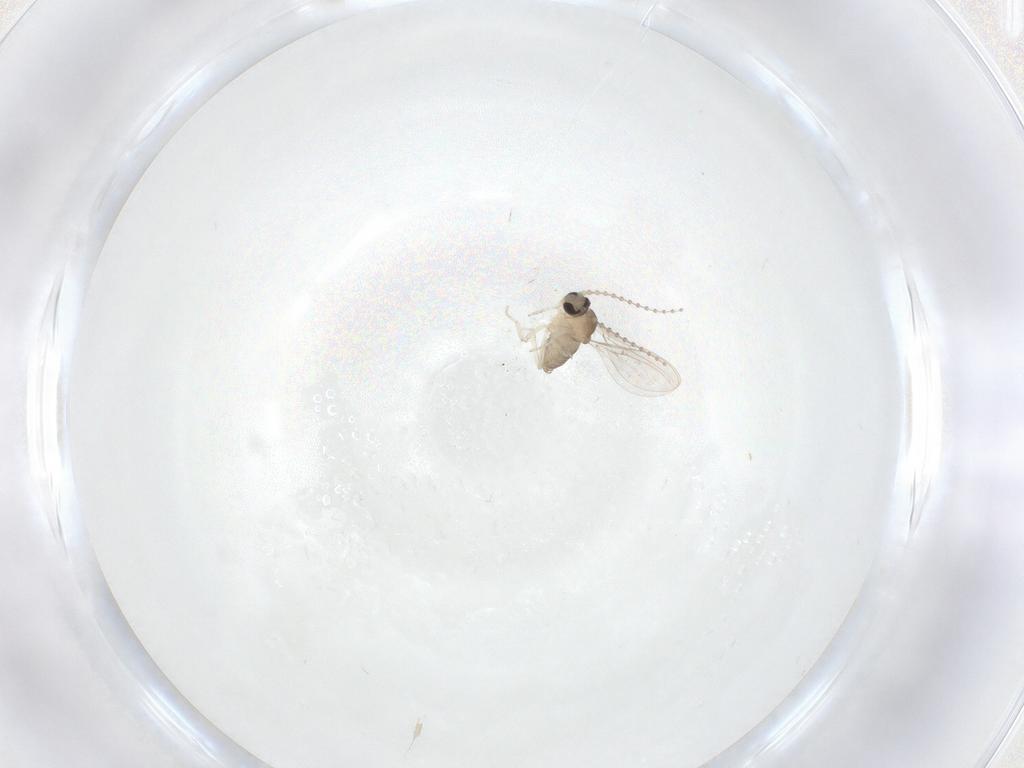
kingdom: Animalia
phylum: Arthropoda
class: Insecta
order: Diptera
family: Cecidomyiidae
